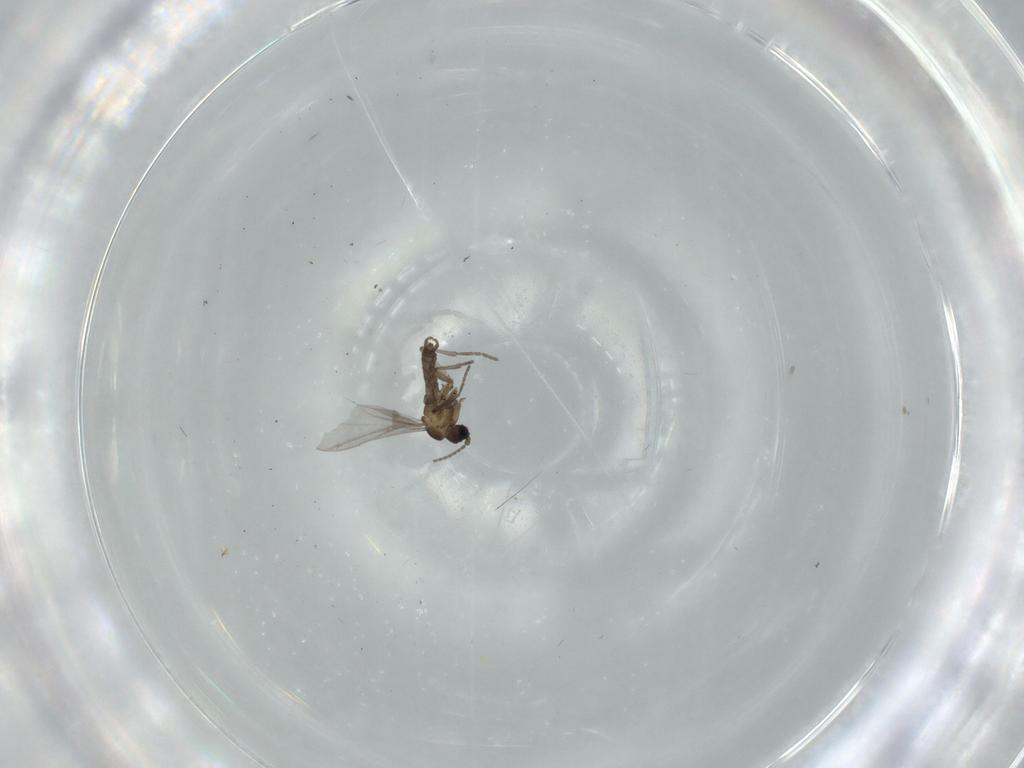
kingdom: Animalia
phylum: Arthropoda
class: Insecta
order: Diptera
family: Sciaridae
